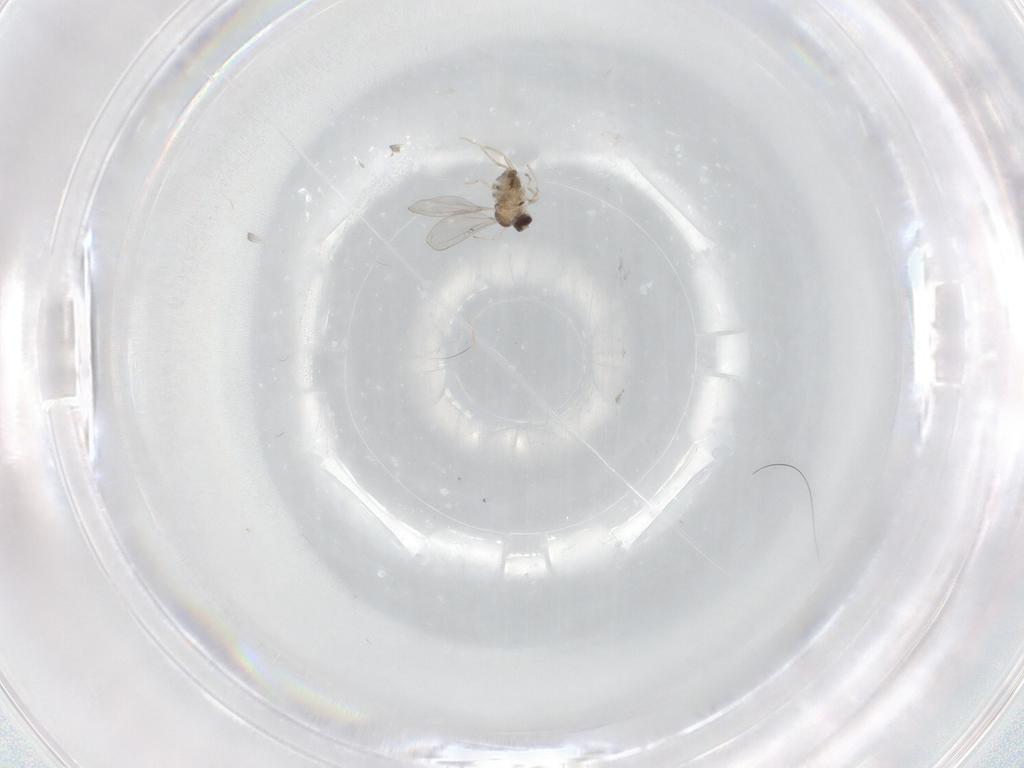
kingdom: Animalia
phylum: Arthropoda
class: Insecta
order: Diptera
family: Cecidomyiidae
